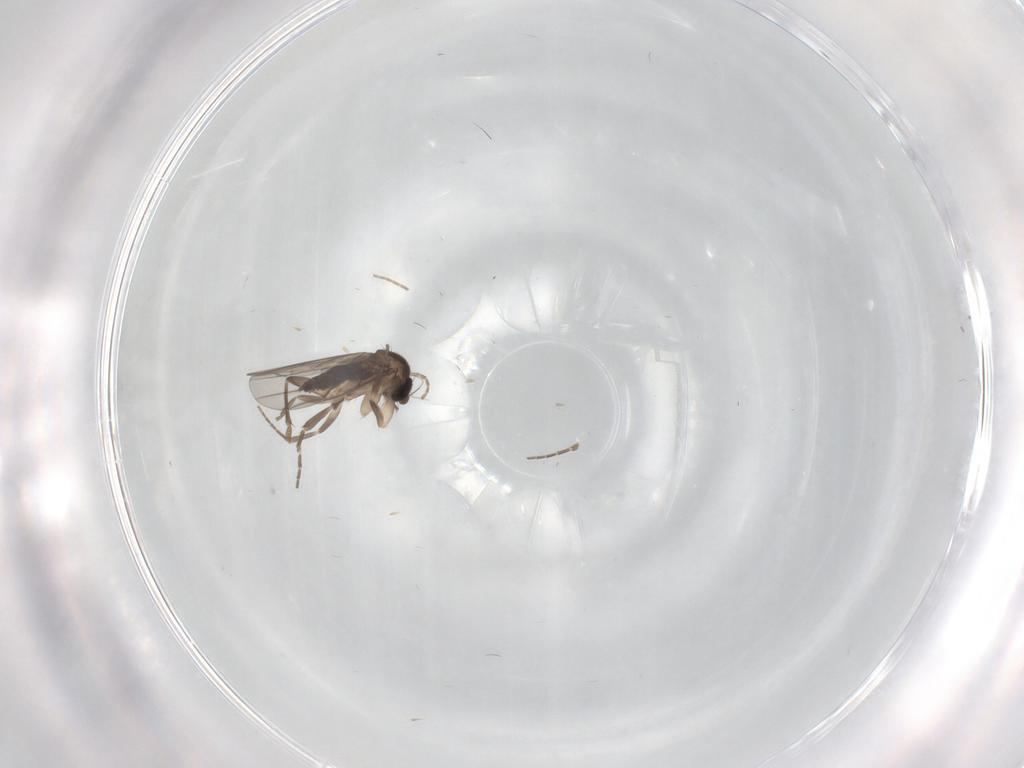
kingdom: Animalia
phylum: Arthropoda
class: Insecta
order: Diptera
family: Phoridae
